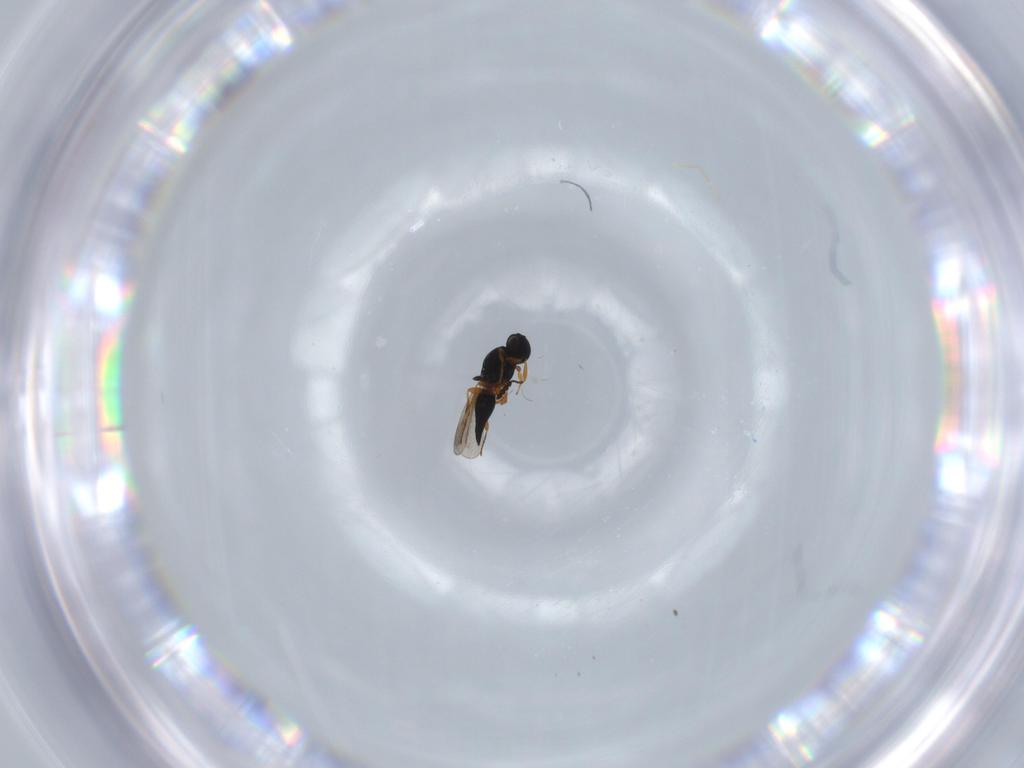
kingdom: Animalia
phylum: Arthropoda
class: Insecta
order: Hymenoptera
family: Platygastridae
